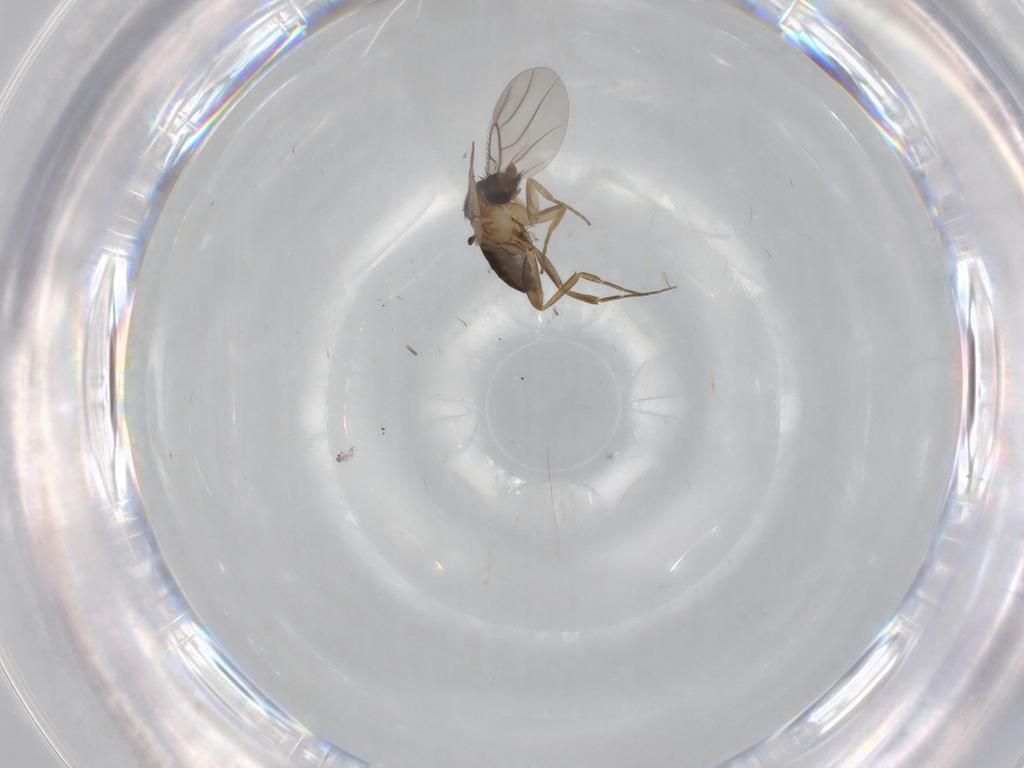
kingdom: Animalia
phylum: Arthropoda
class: Insecta
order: Diptera
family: Phoridae
